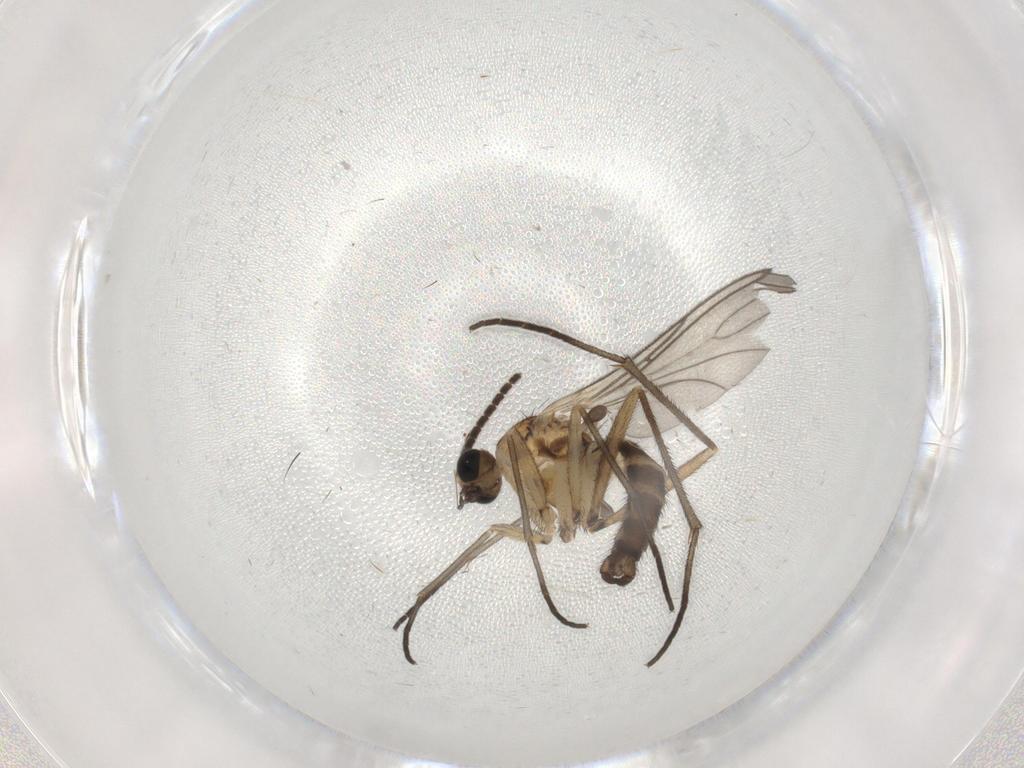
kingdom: Animalia
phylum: Arthropoda
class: Insecta
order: Diptera
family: Sciaridae
